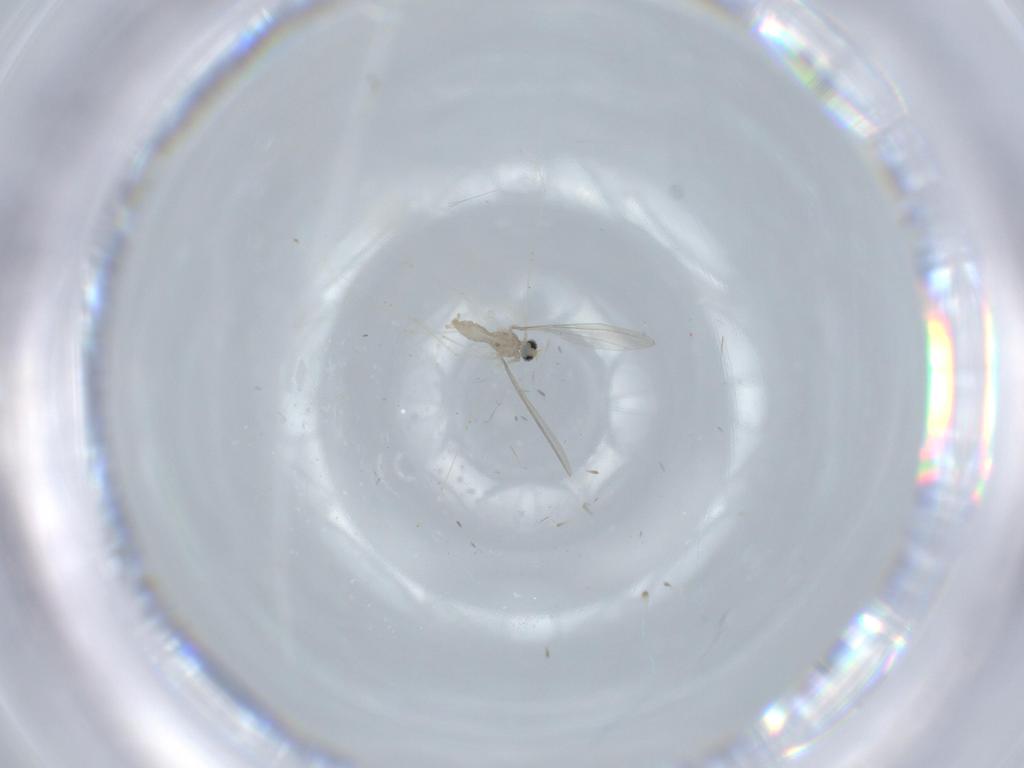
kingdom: Animalia
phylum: Arthropoda
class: Insecta
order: Diptera
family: Cecidomyiidae
